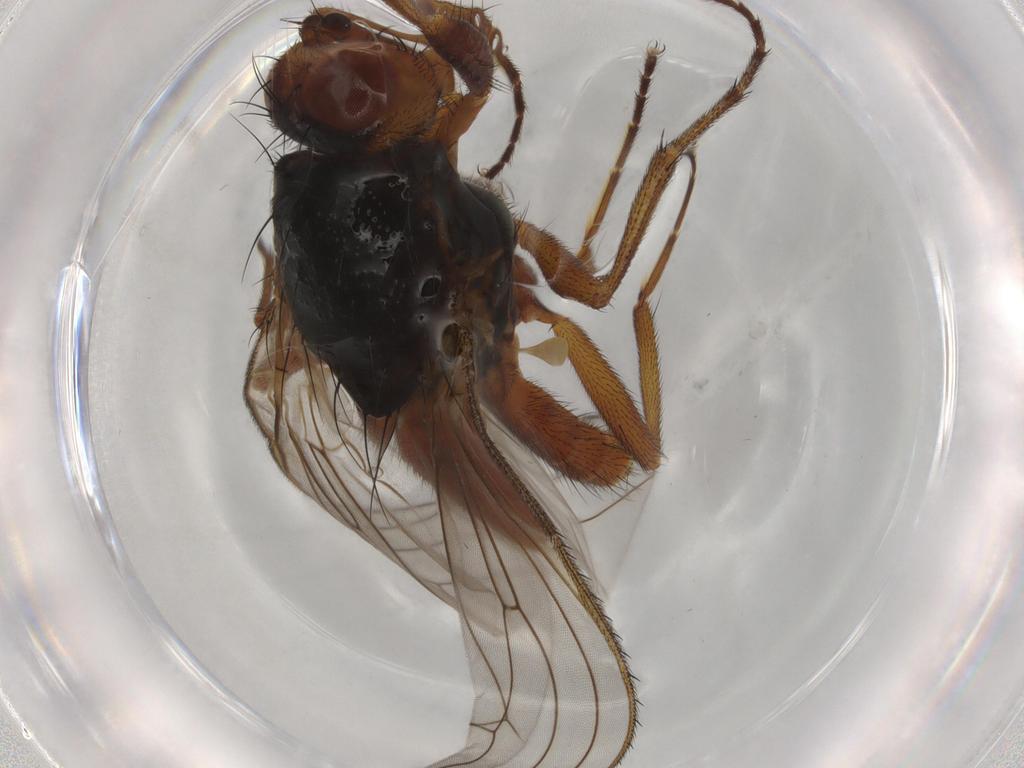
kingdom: Animalia
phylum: Arthropoda
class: Insecta
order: Diptera
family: Heleomyzidae
